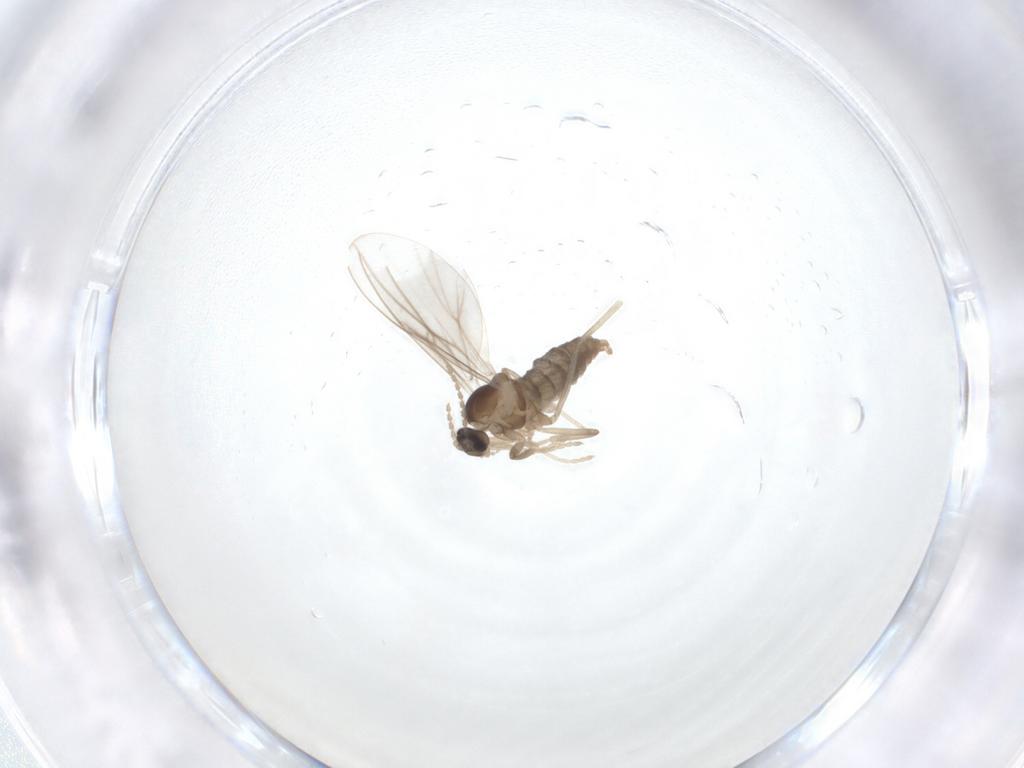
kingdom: Animalia
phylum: Arthropoda
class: Insecta
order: Diptera
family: Cecidomyiidae
